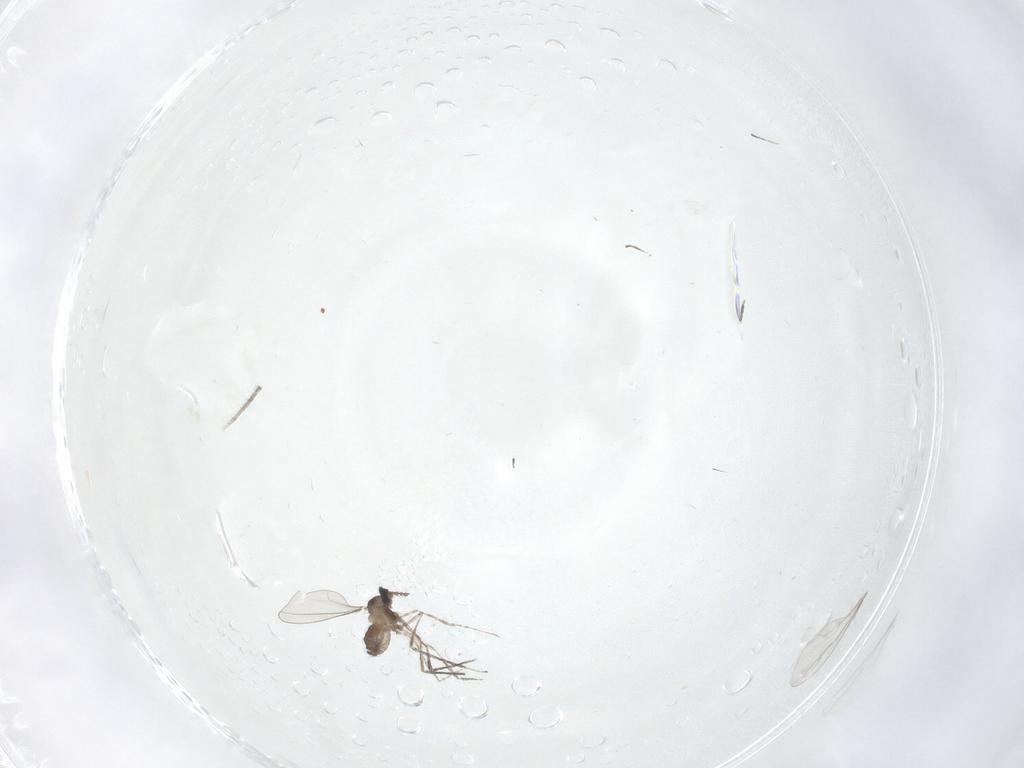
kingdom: Animalia
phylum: Arthropoda
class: Insecta
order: Diptera
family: Cecidomyiidae
